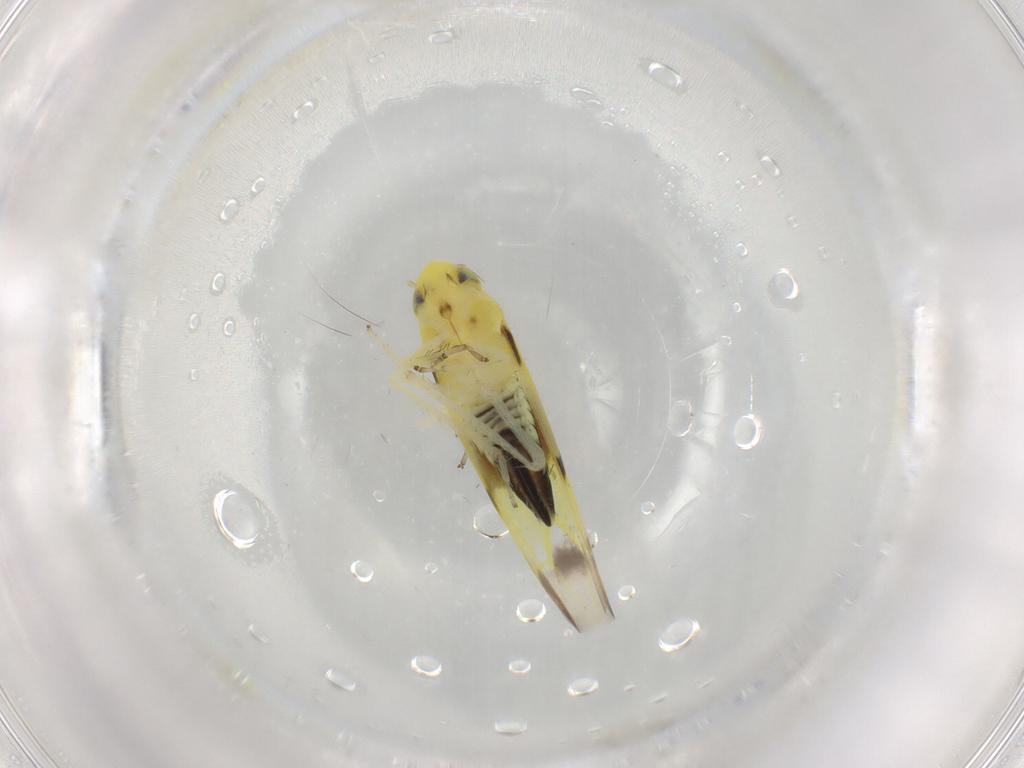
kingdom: Animalia
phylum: Arthropoda
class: Insecta
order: Hemiptera
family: Cicadellidae
